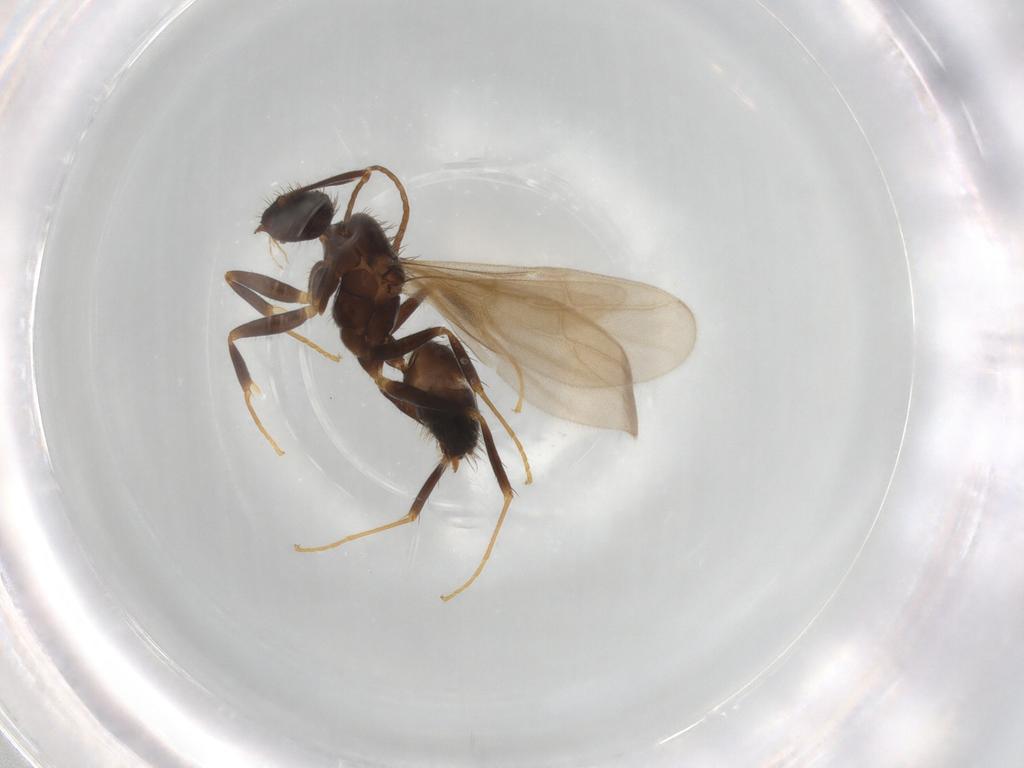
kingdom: Animalia
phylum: Arthropoda
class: Insecta
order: Hymenoptera
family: Formicidae
